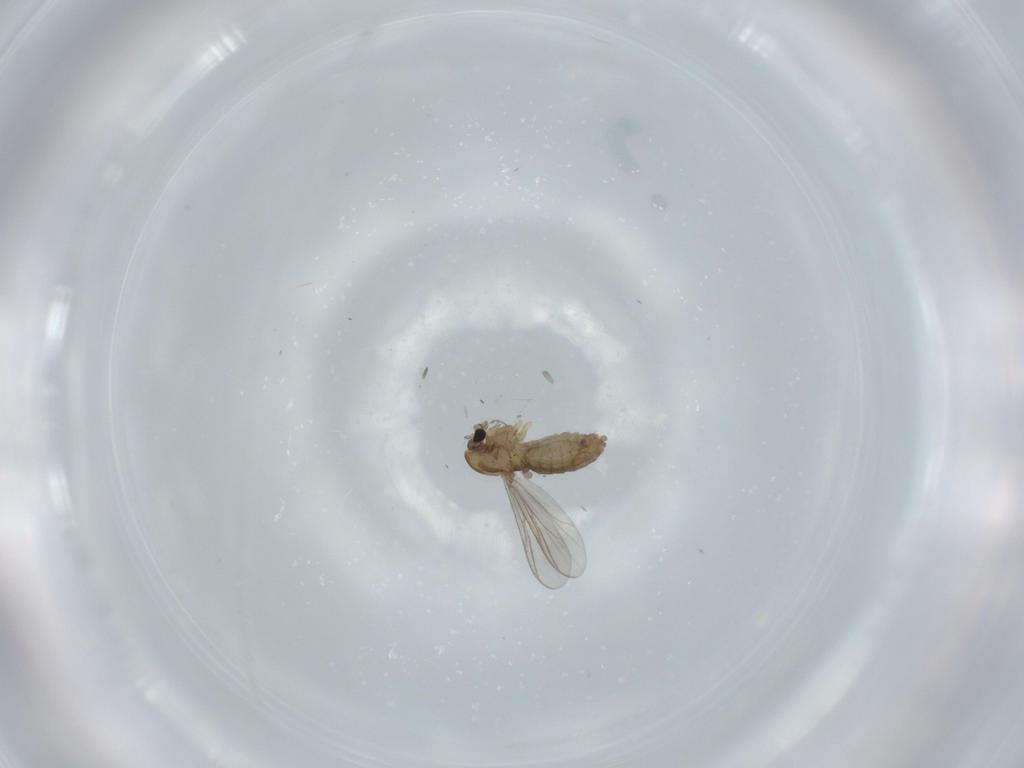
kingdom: Animalia
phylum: Arthropoda
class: Insecta
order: Diptera
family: Chironomidae
